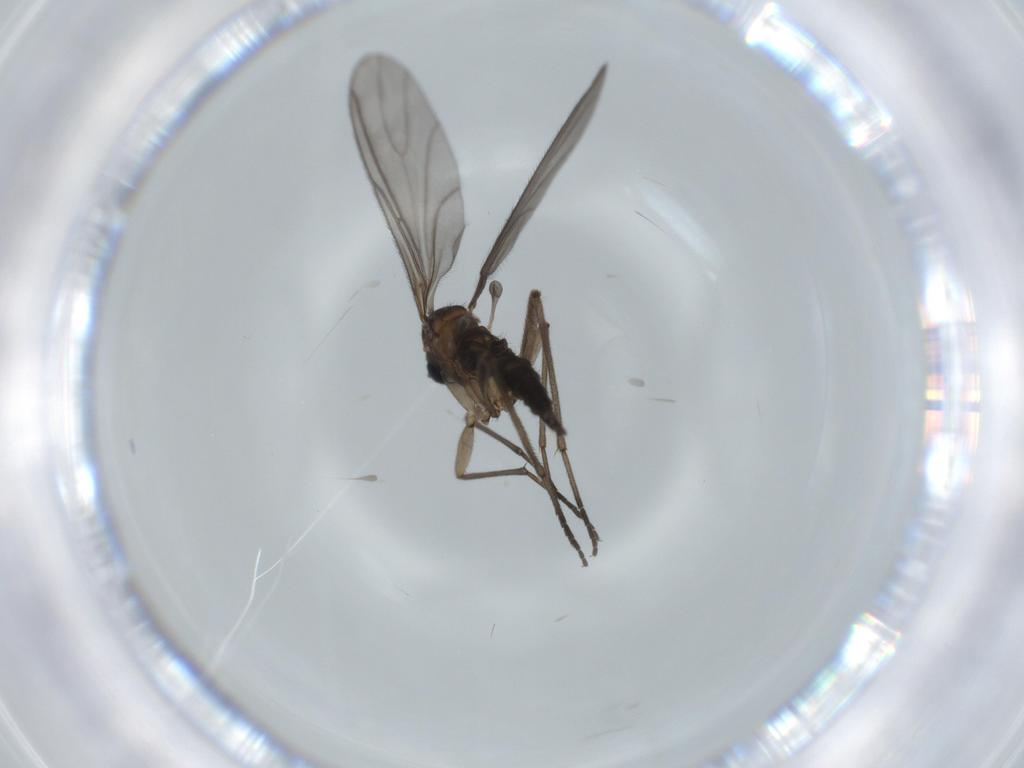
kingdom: Animalia
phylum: Arthropoda
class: Insecta
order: Diptera
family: Sciaridae
